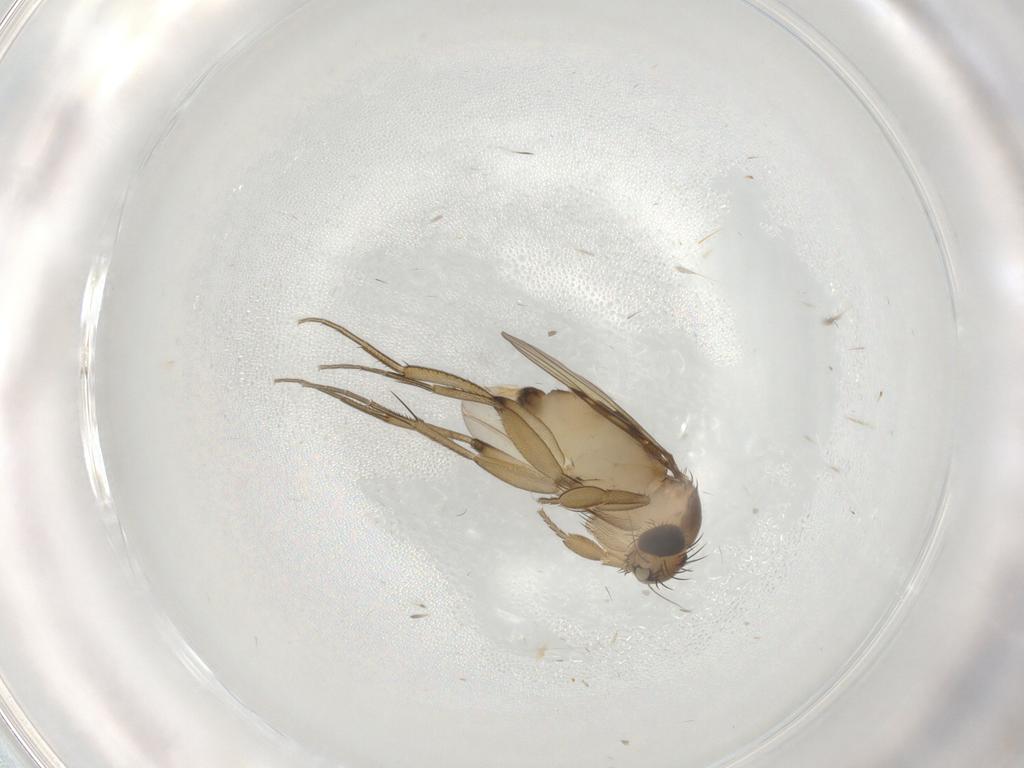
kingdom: Animalia
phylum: Arthropoda
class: Insecta
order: Diptera
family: Phoridae
